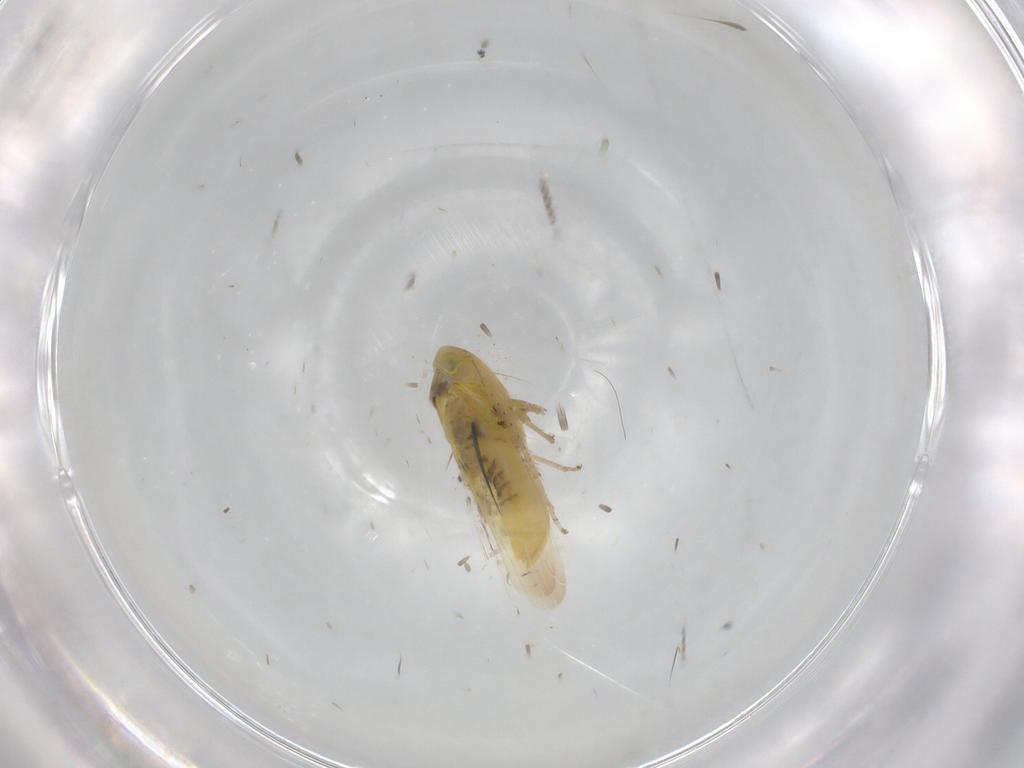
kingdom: Animalia
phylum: Arthropoda
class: Insecta
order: Hemiptera
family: Cicadellidae
